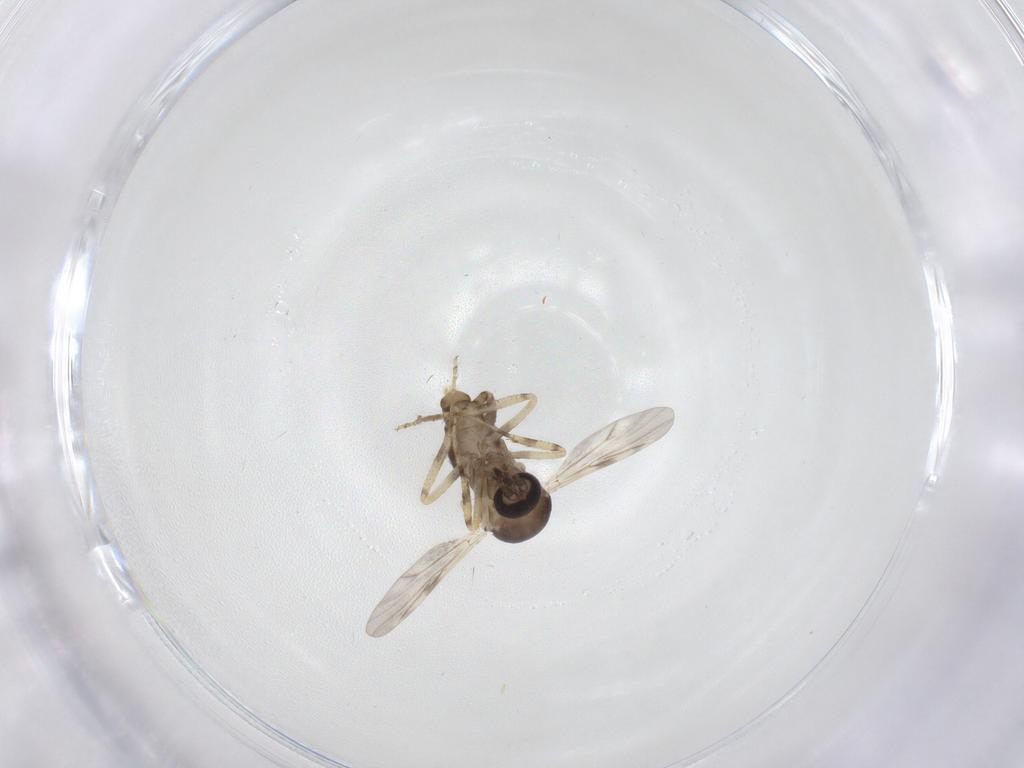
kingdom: Animalia
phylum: Arthropoda
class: Insecta
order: Diptera
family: Ceratopogonidae
